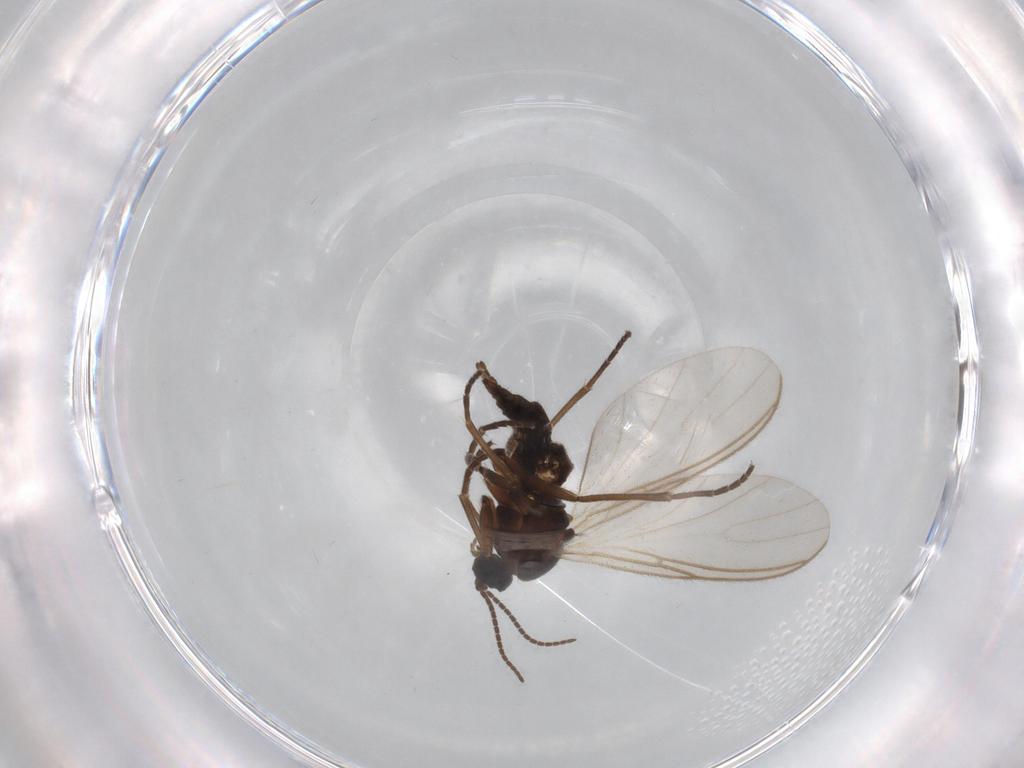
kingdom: Animalia
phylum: Arthropoda
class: Insecta
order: Diptera
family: Sciaridae
